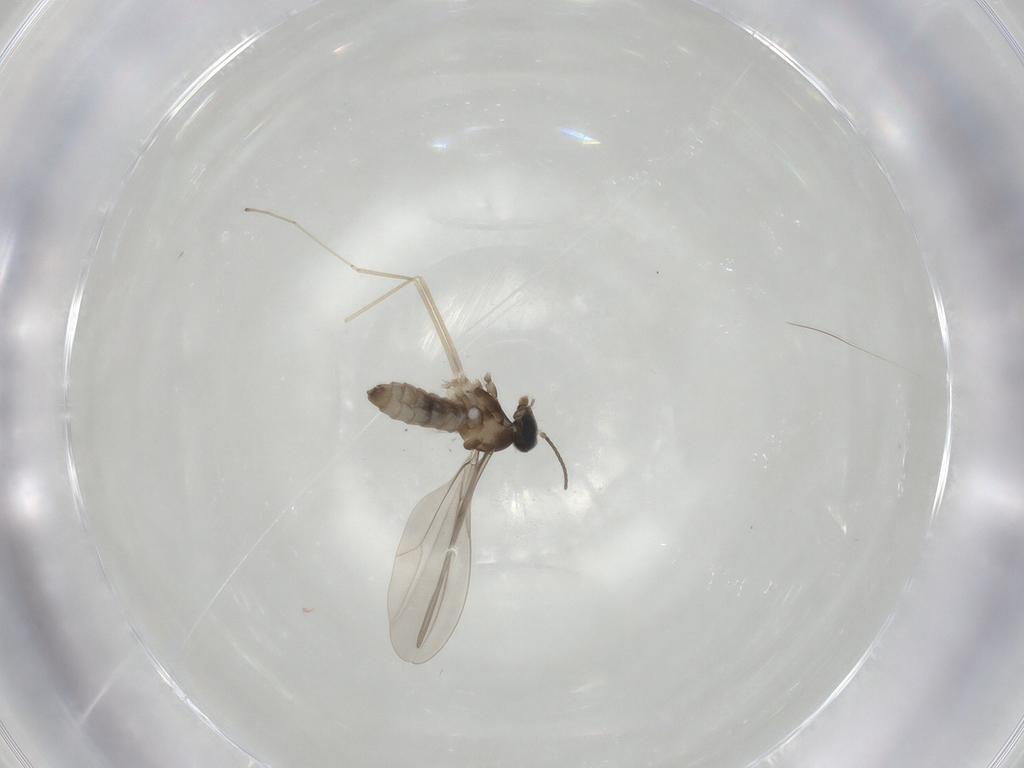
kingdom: Animalia
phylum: Arthropoda
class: Insecta
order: Diptera
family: Cecidomyiidae
